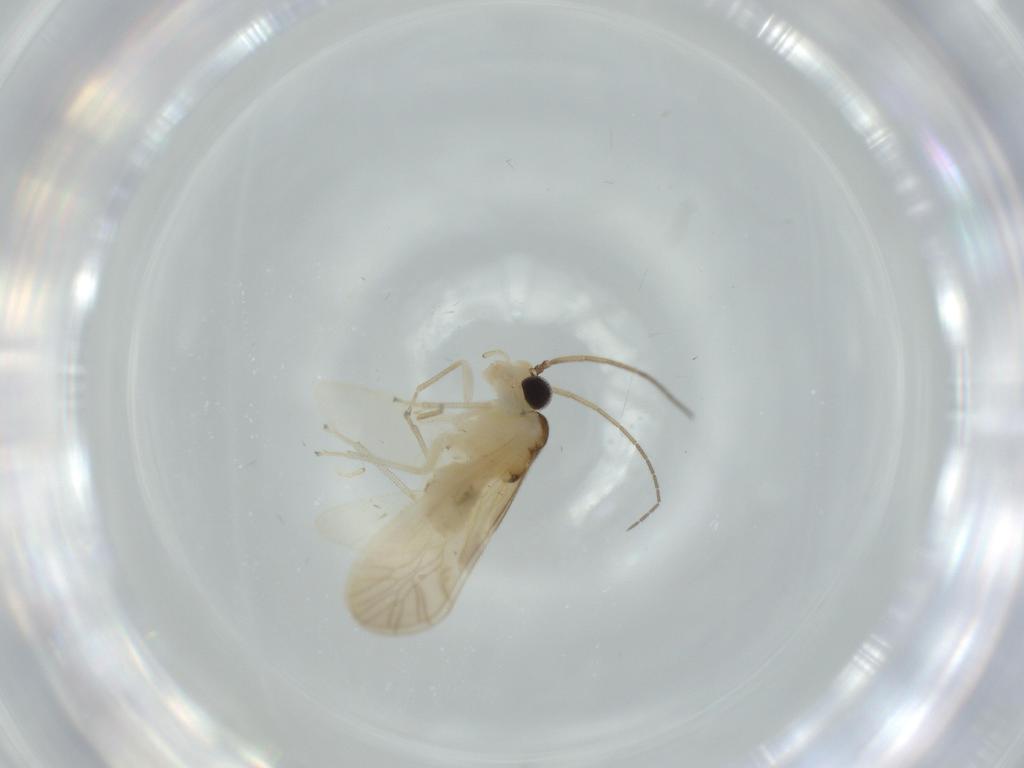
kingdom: Animalia
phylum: Arthropoda
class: Insecta
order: Psocodea
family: Caeciliusidae
